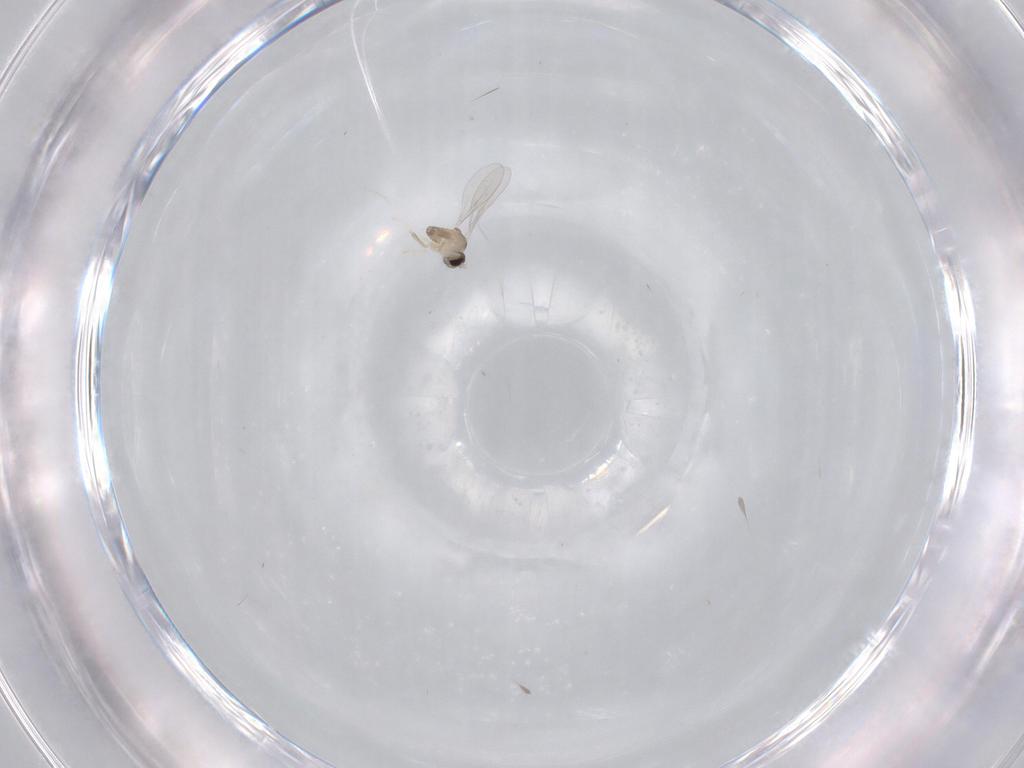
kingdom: Animalia
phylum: Arthropoda
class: Insecta
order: Diptera
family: Cecidomyiidae
